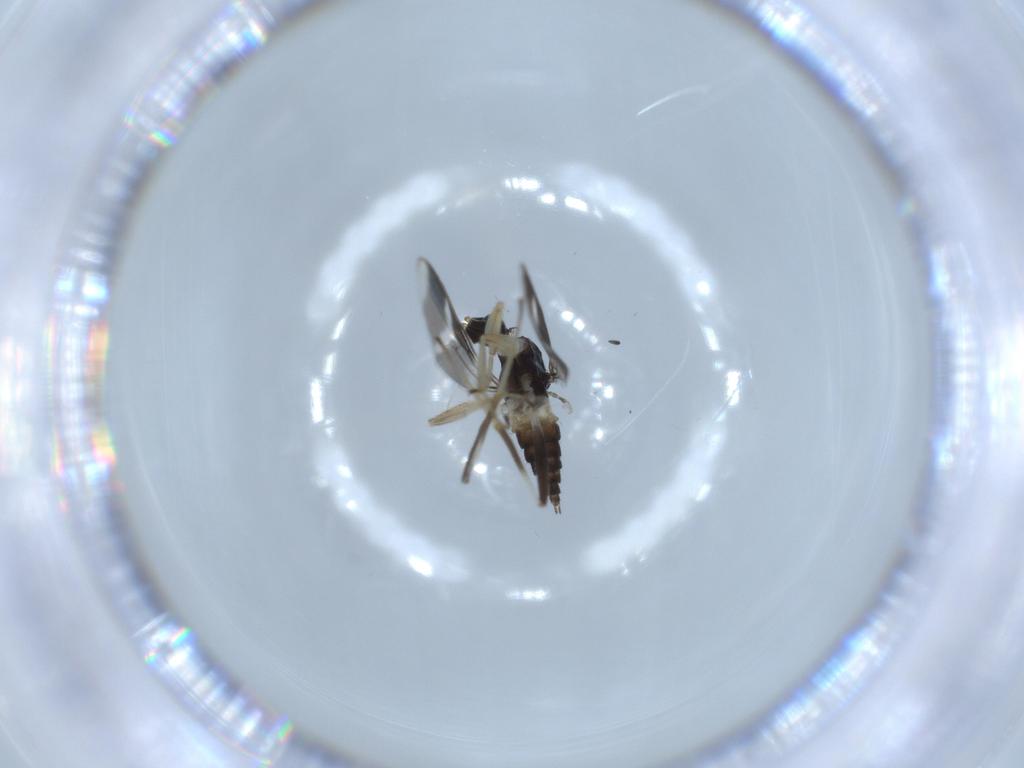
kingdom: Animalia
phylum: Arthropoda
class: Insecta
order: Diptera
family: Hybotidae
